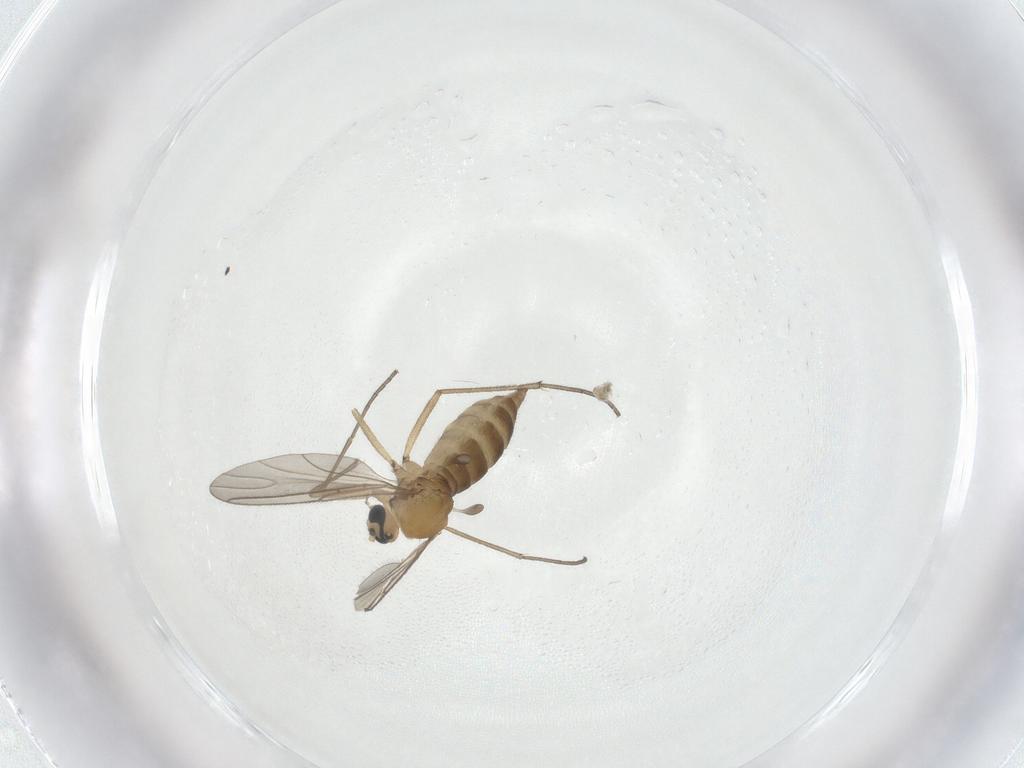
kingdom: Animalia
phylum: Arthropoda
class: Insecta
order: Diptera
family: Sciaridae
